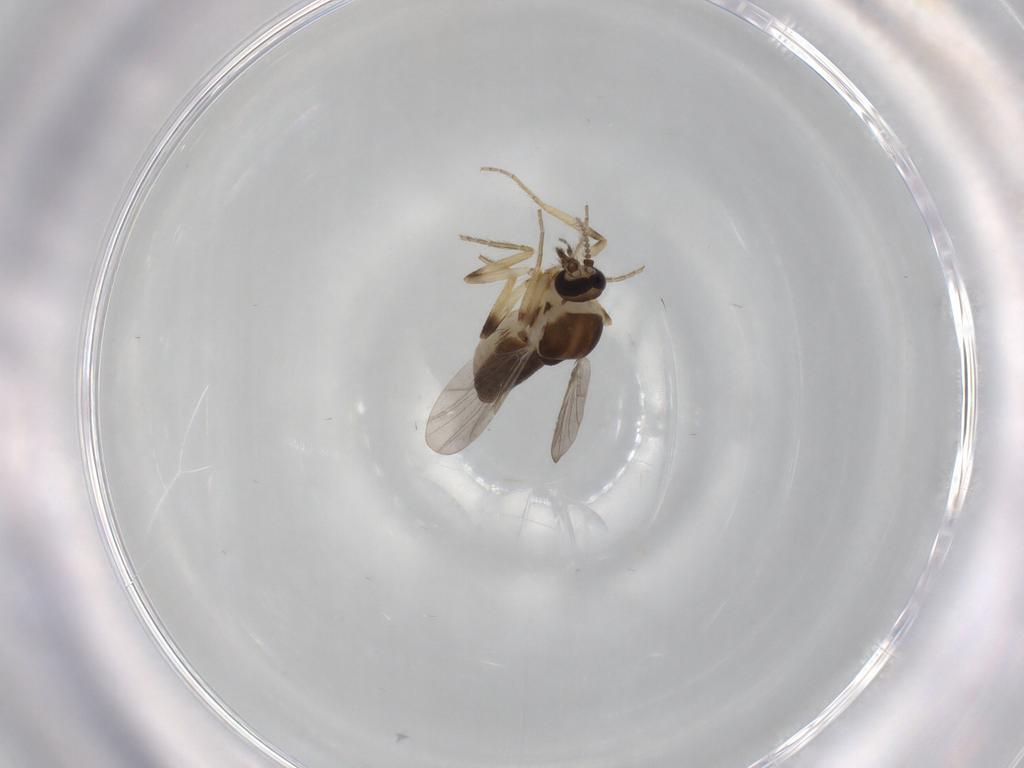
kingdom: Animalia
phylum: Arthropoda
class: Insecta
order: Diptera
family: Ceratopogonidae
